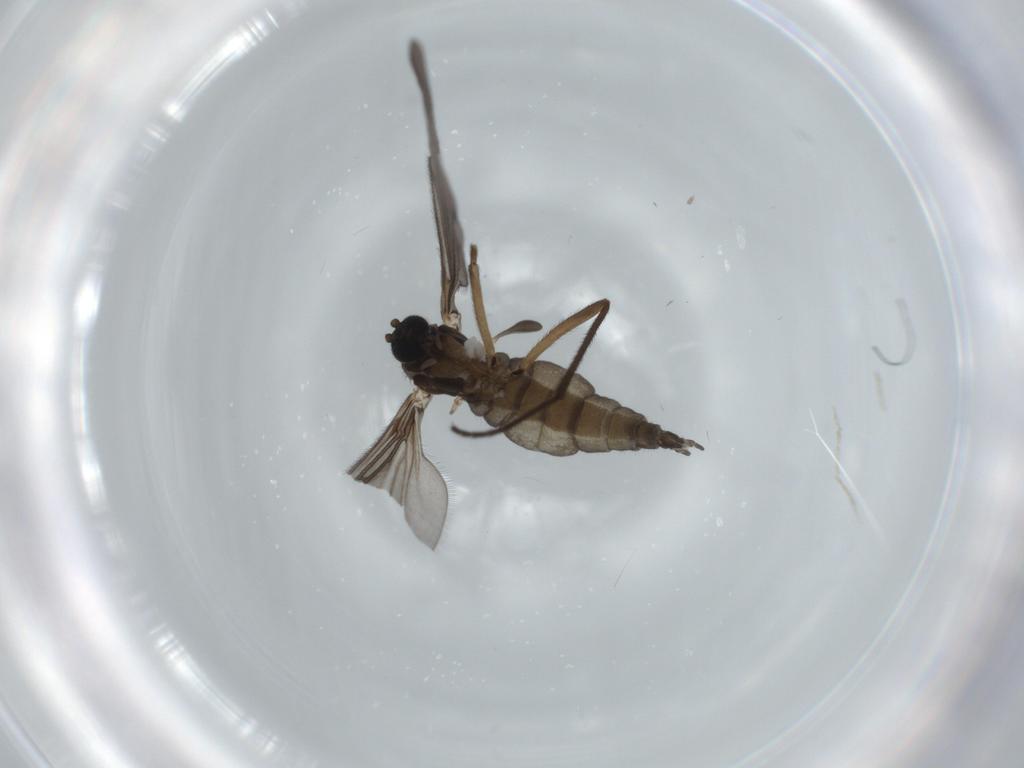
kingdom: Animalia
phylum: Arthropoda
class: Insecta
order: Diptera
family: Sciaridae
